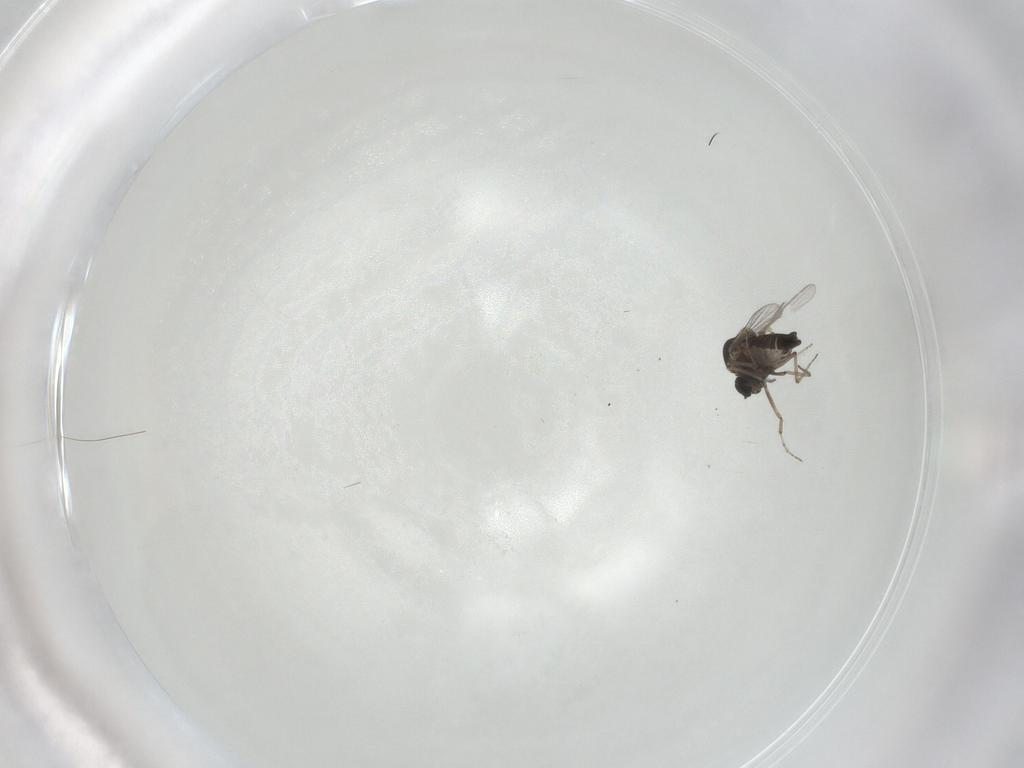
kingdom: Animalia
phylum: Arthropoda
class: Insecta
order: Diptera
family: Ceratopogonidae
